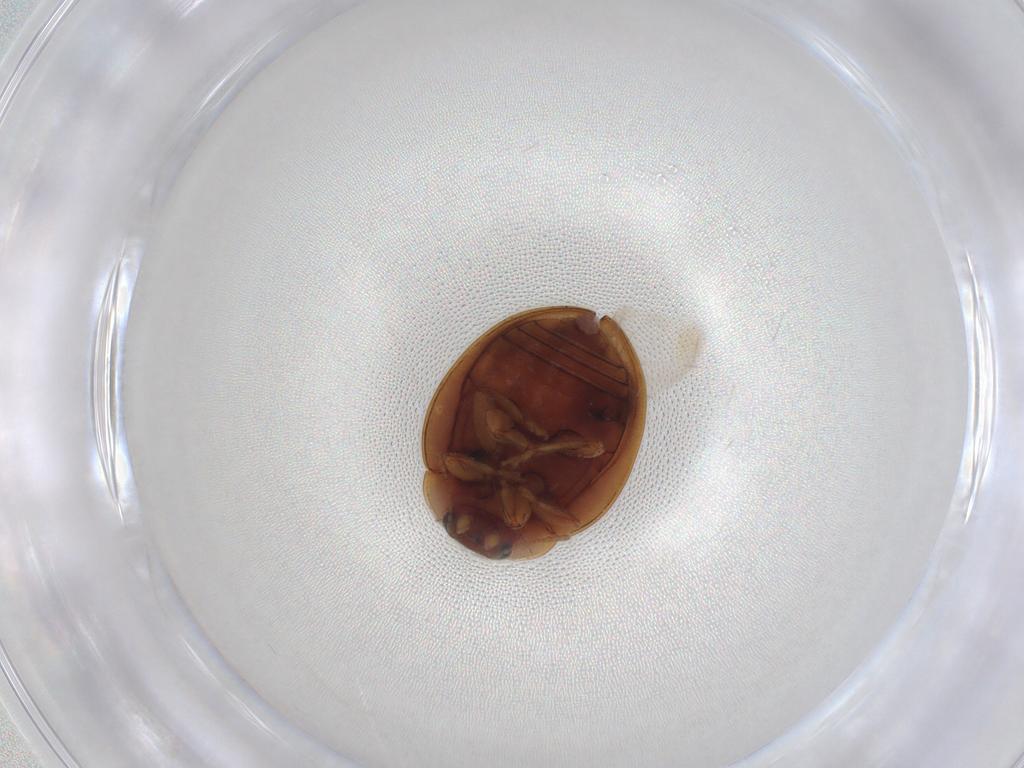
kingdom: Animalia
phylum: Arthropoda
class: Insecta
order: Coleoptera
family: Coccinellidae
